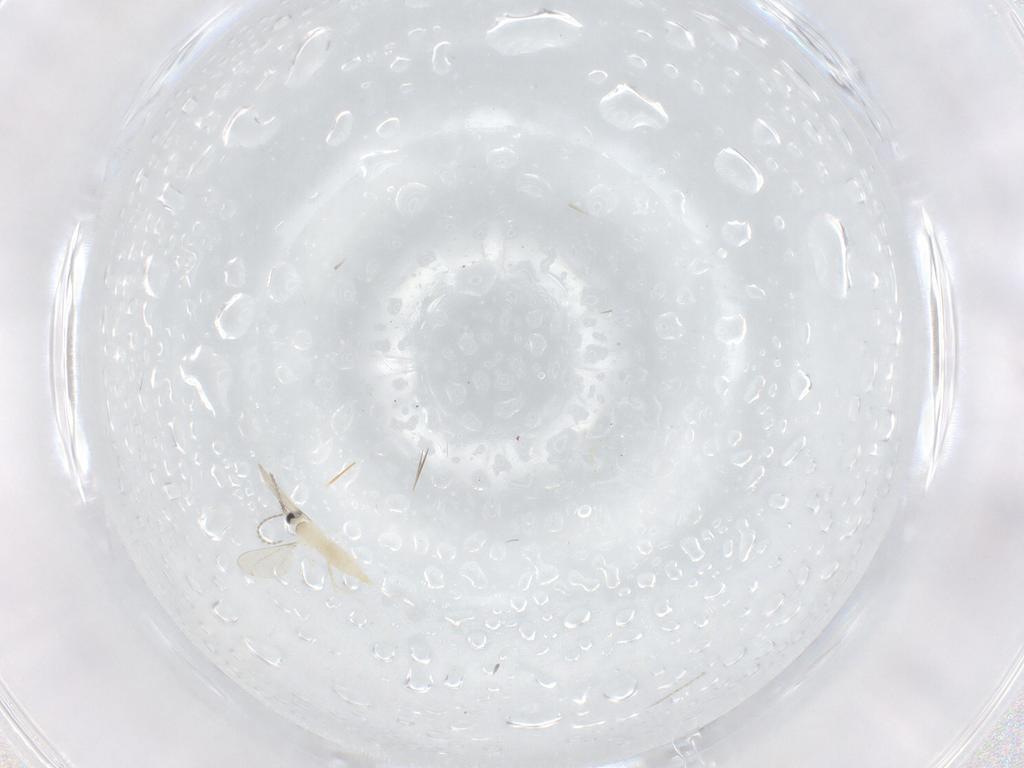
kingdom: Animalia
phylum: Arthropoda
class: Insecta
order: Diptera
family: Cecidomyiidae
